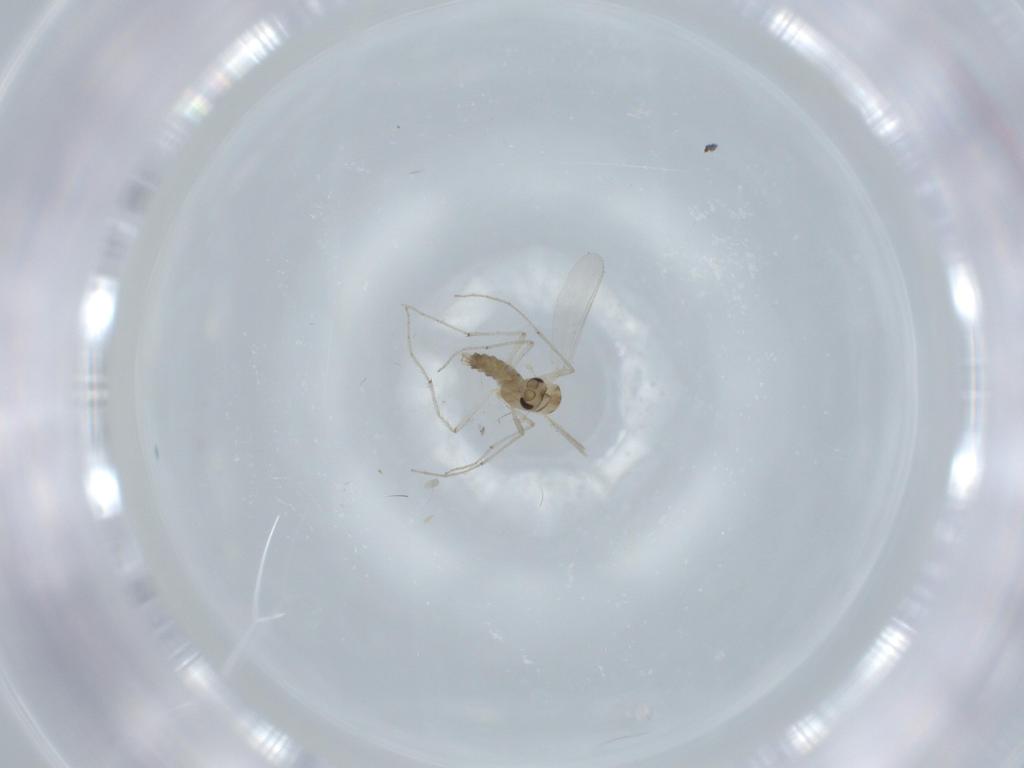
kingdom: Animalia
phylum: Arthropoda
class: Insecta
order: Diptera
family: Chironomidae
